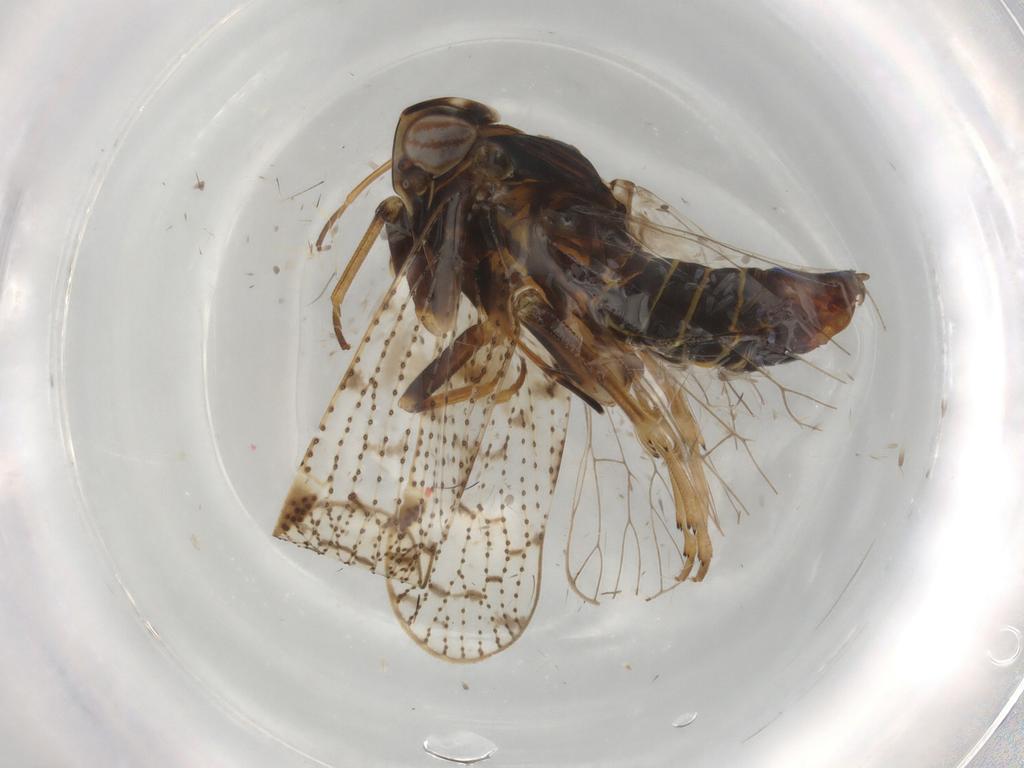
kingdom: Animalia
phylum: Arthropoda
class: Insecta
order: Hemiptera
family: Cixiidae
